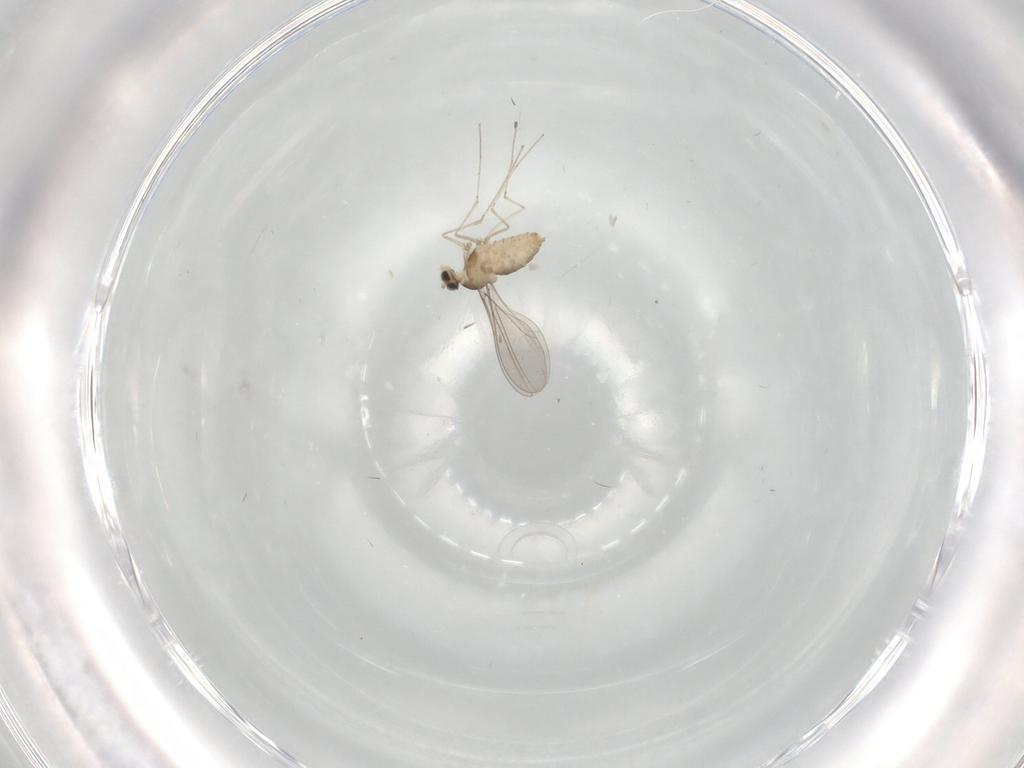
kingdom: Animalia
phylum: Arthropoda
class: Insecta
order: Diptera
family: Cecidomyiidae
